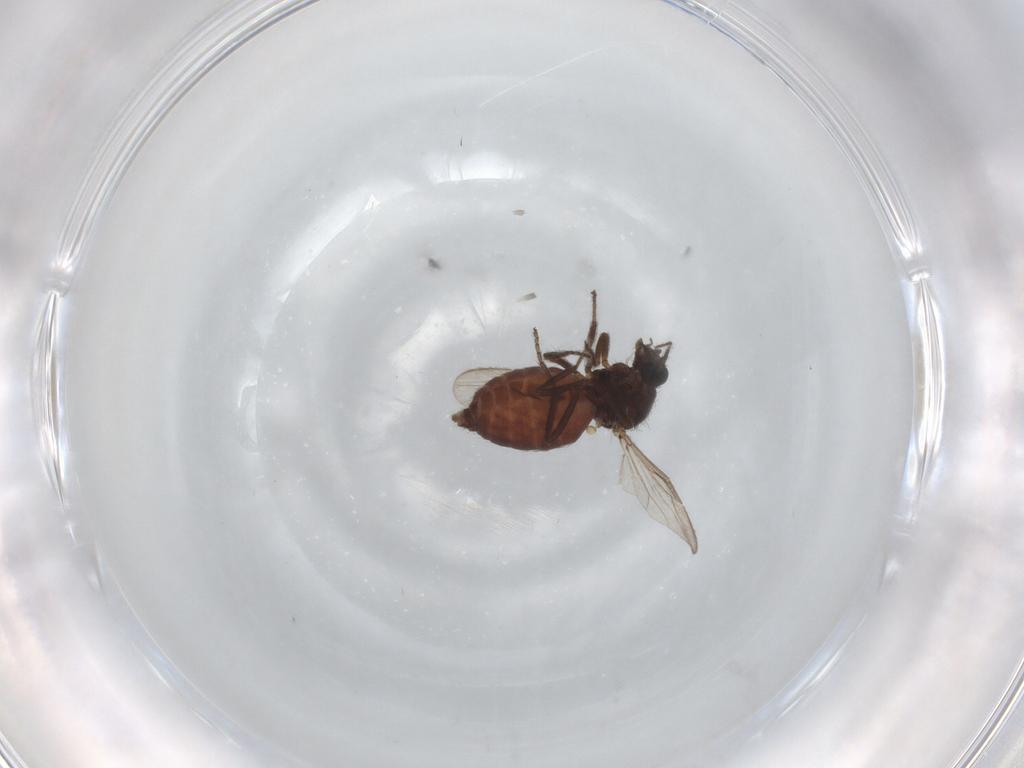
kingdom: Animalia
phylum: Arthropoda
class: Insecta
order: Diptera
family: Ceratopogonidae
